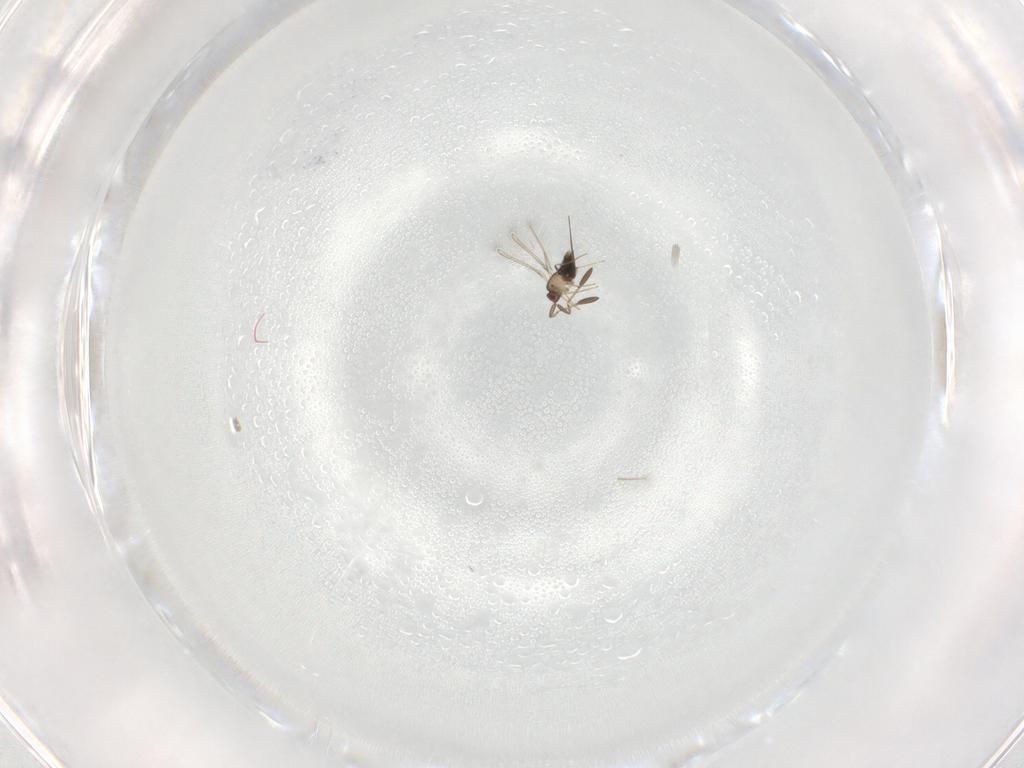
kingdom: Animalia
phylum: Arthropoda
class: Insecta
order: Hymenoptera
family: Mymaridae
